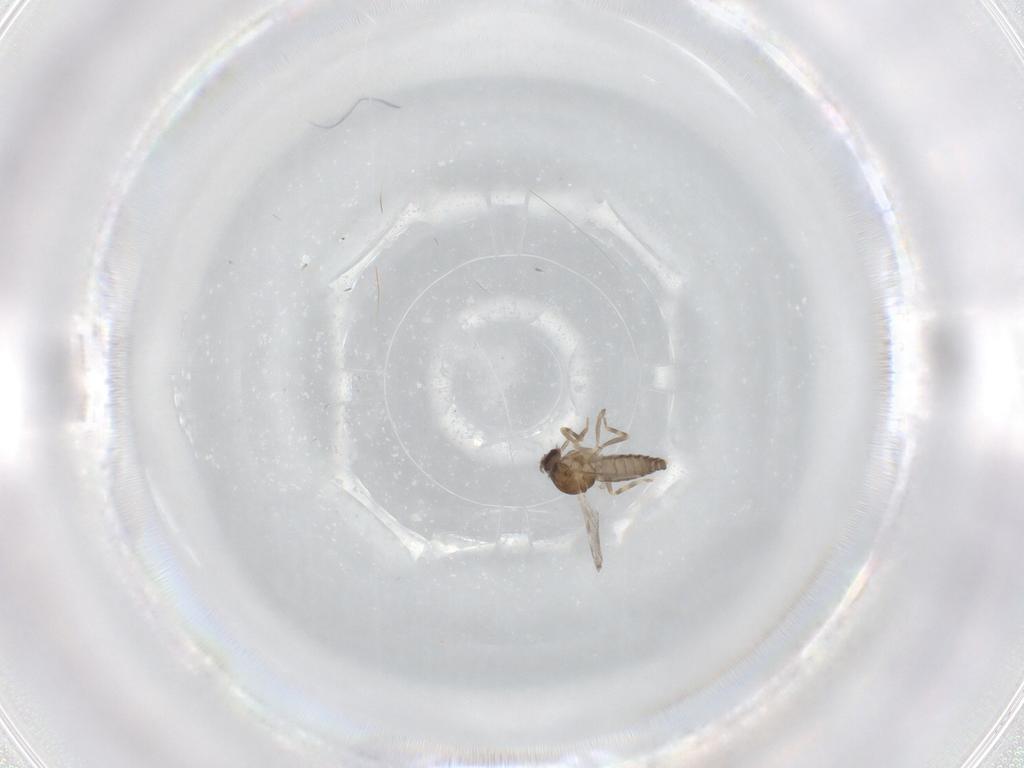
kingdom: Animalia
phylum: Arthropoda
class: Insecta
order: Diptera
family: Ceratopogonidae
